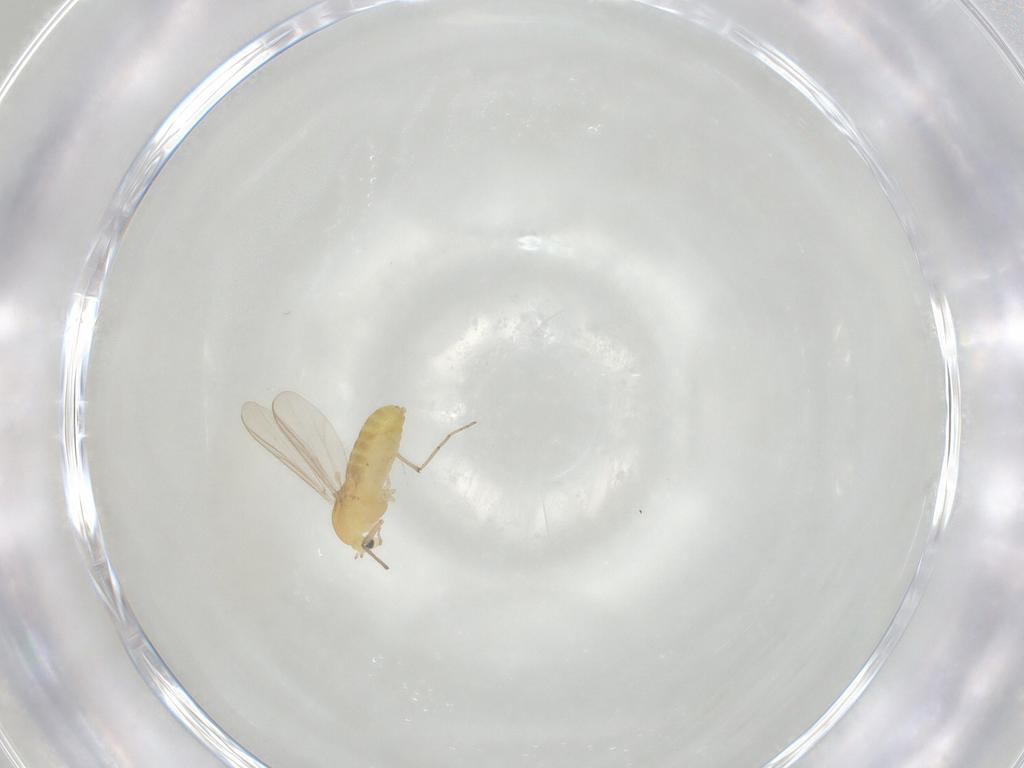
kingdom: Animalia
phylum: Arthropoda
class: Insecta
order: Diptera
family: Chironomidae
